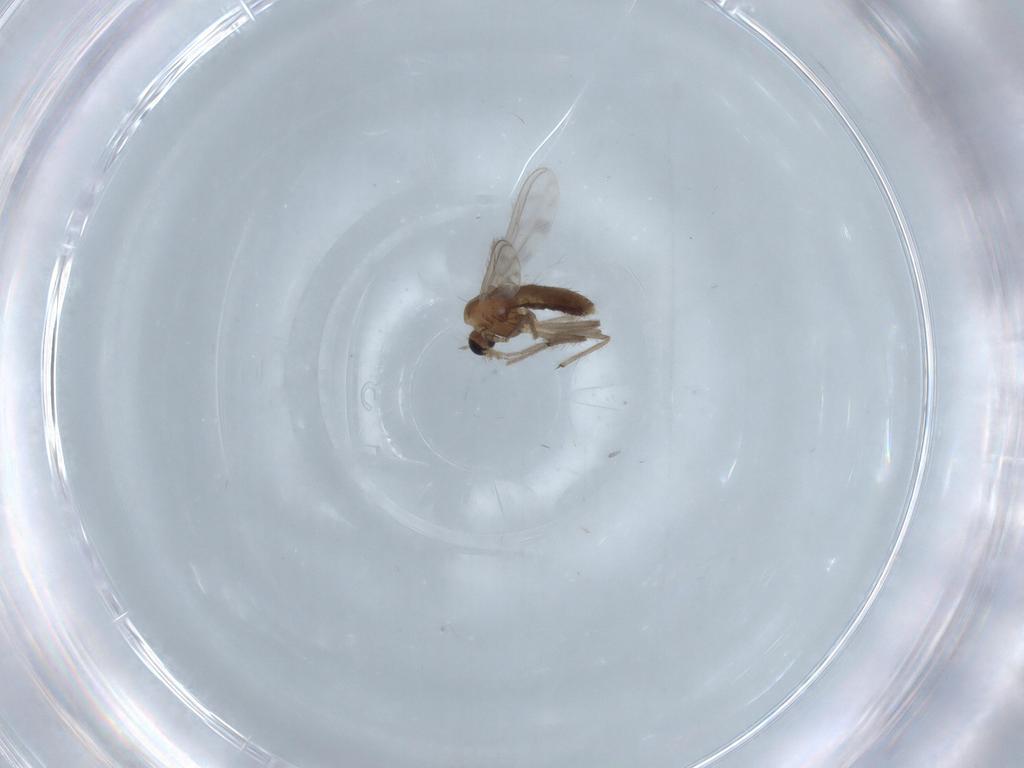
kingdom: Animalia
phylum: Arthropoda
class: Insecta
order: Diptera
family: Chironomidae
